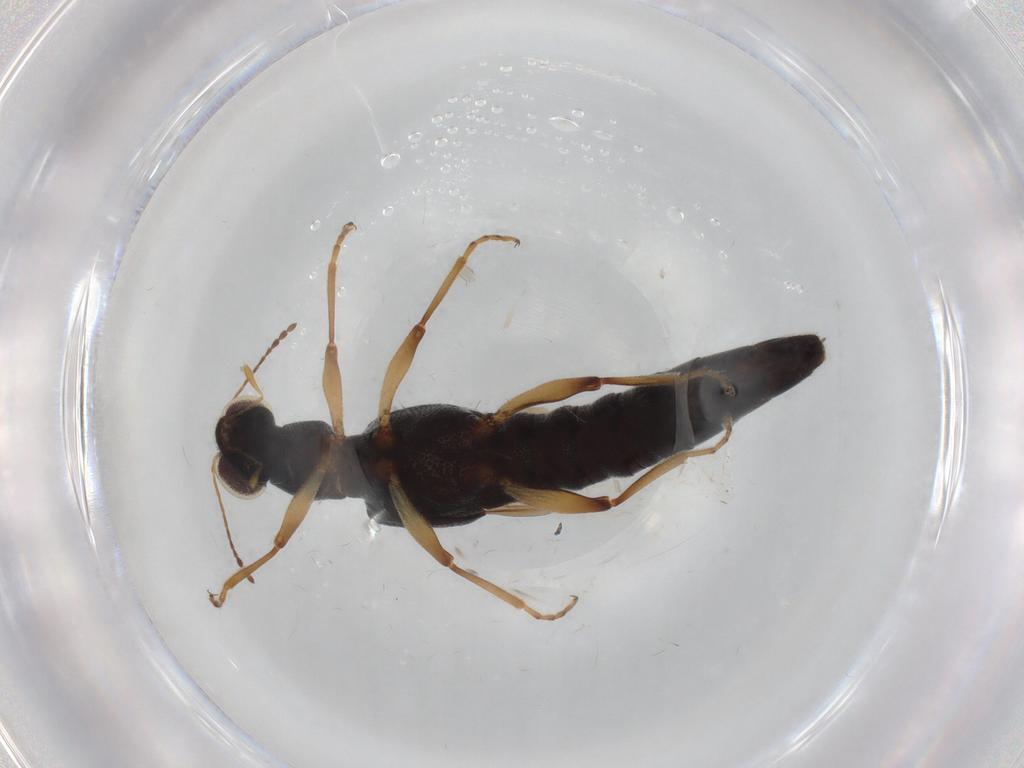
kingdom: Animalia
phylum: Arthropoda
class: Insecta
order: Coleoptera
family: Staphylinidae
